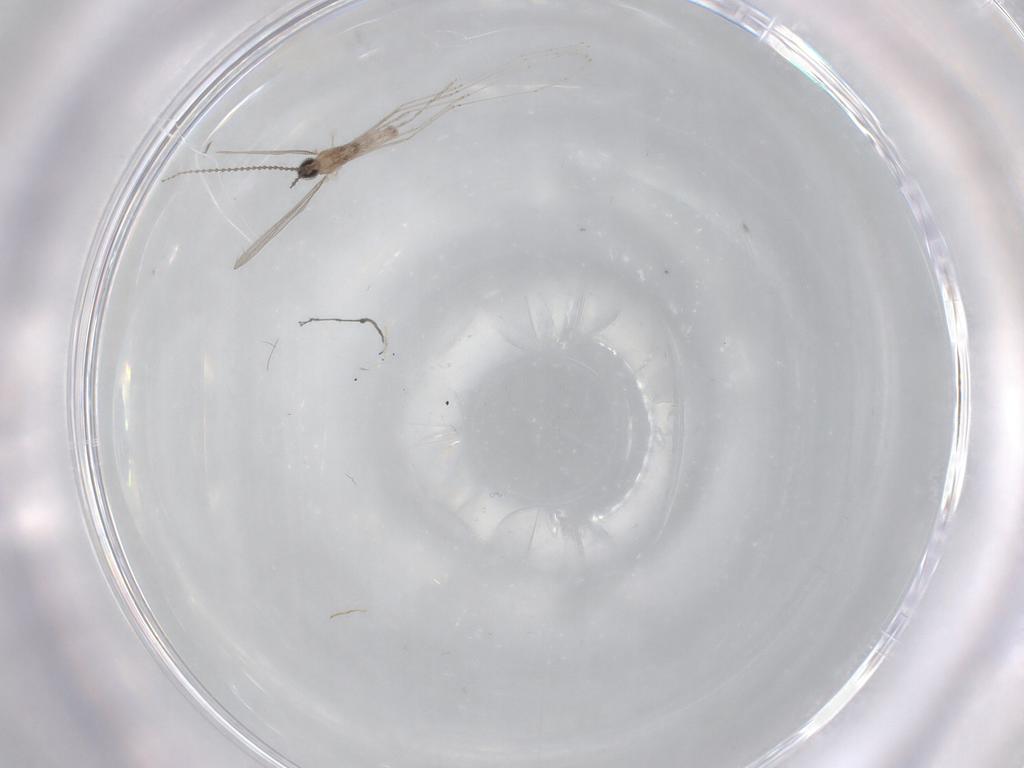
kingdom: Animalia
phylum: Arthropoda
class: Insecta
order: Diptera
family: Cecidomyiidae
